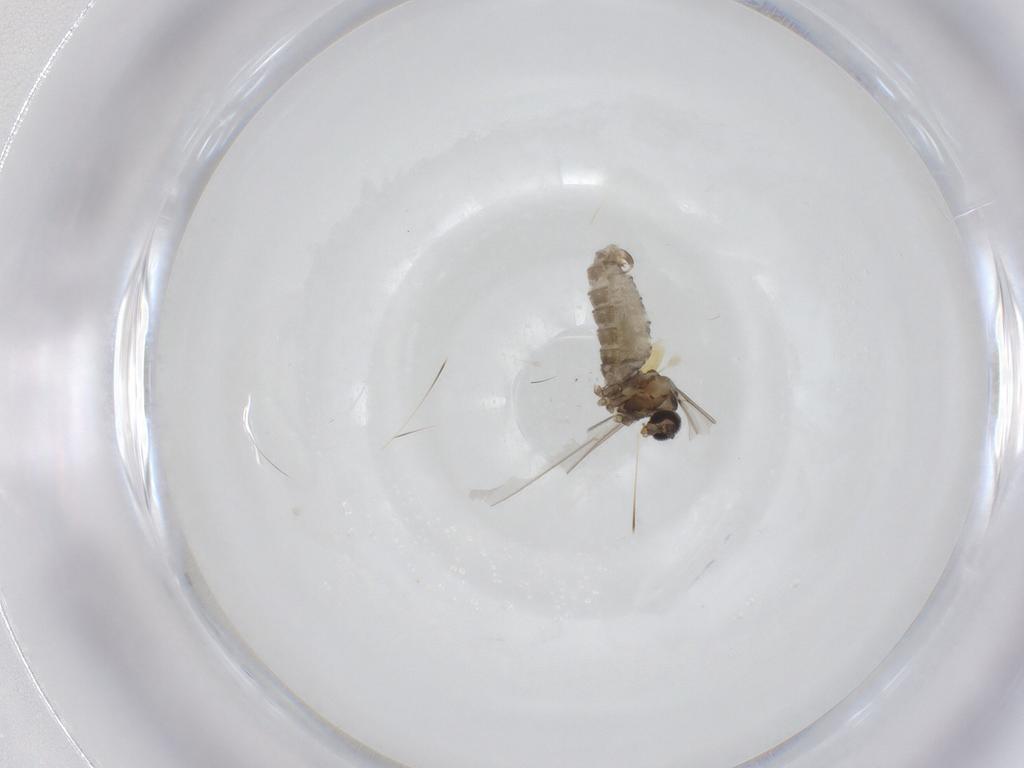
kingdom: Animalia
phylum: Arthropoda
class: Insecta
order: Diptera
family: Cecidomyiidae
